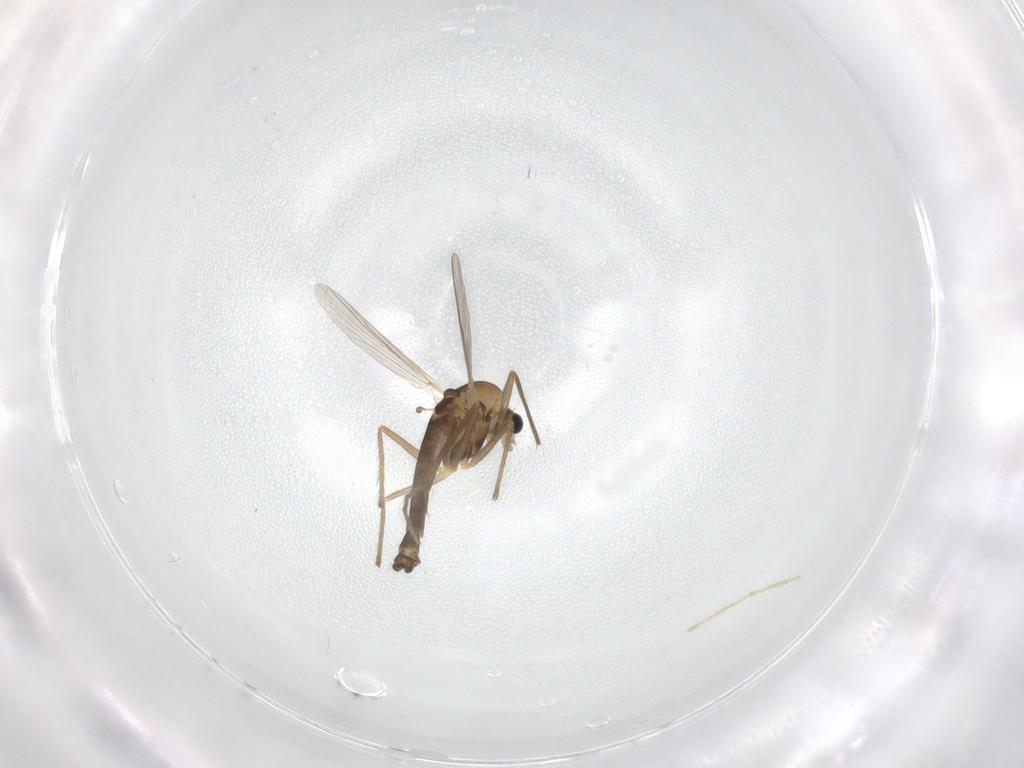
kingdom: Animalia
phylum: Arthropoda
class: Insecta
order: Diptera
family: Chironomidae
